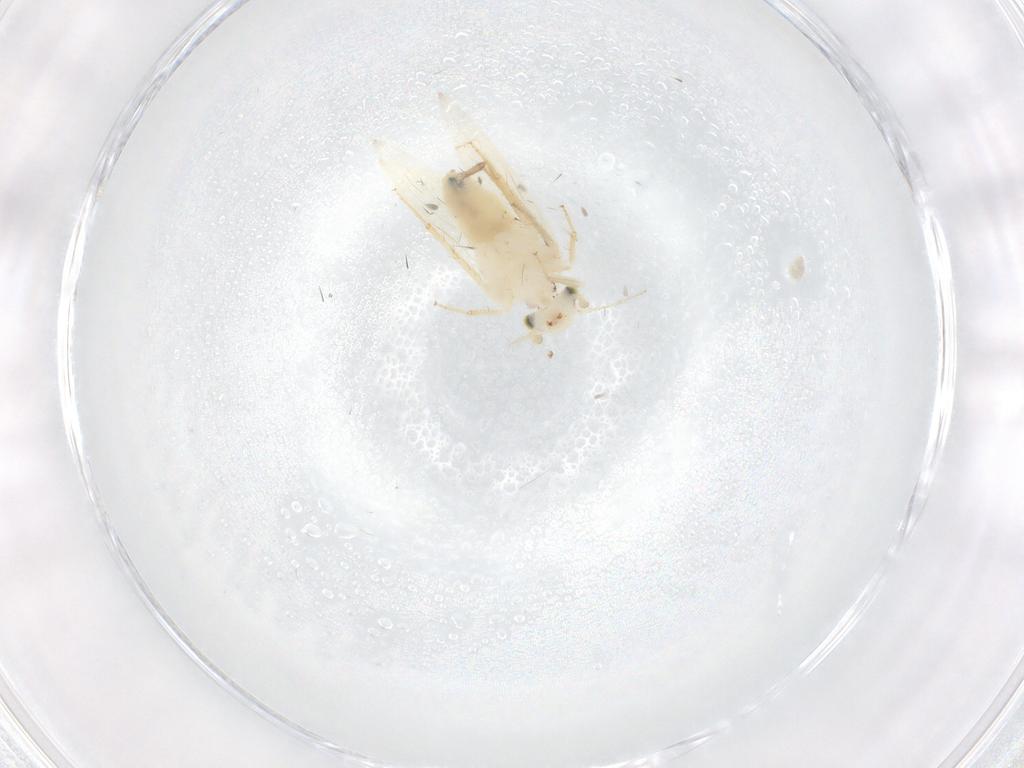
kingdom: Animalia
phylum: Arthropoda
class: Insecta
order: Psocodea
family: Lepidopsocidae
